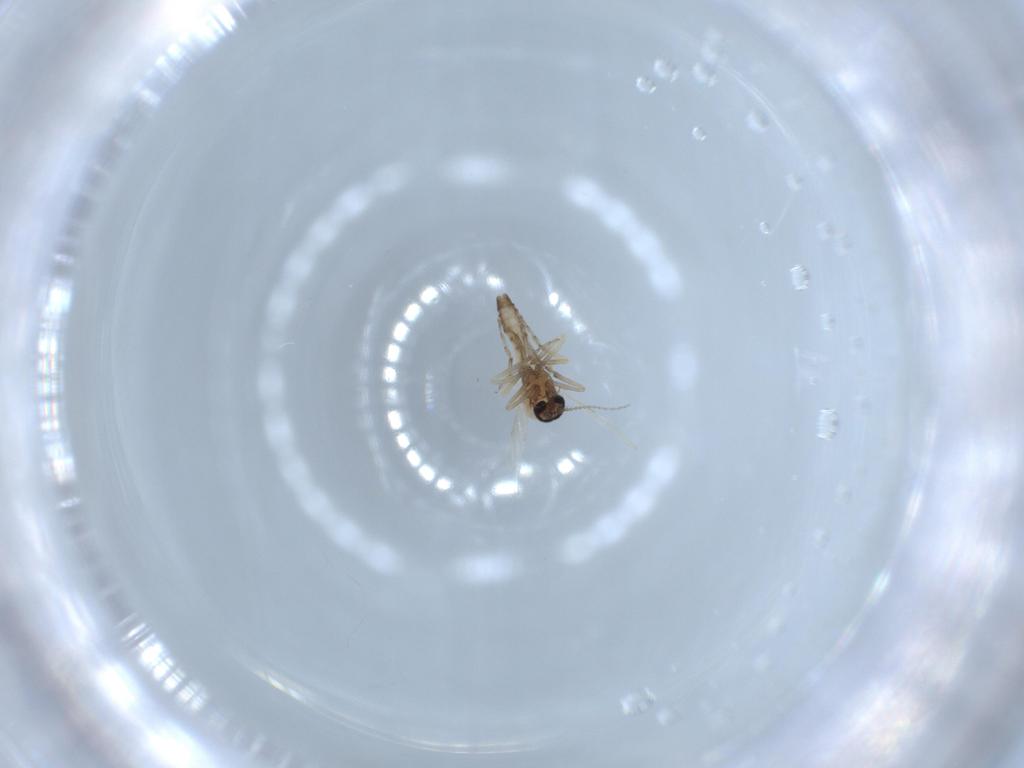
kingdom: Animalia
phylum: Arthropoda
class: Insecta
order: Diptera
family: Ceratopogonidae
